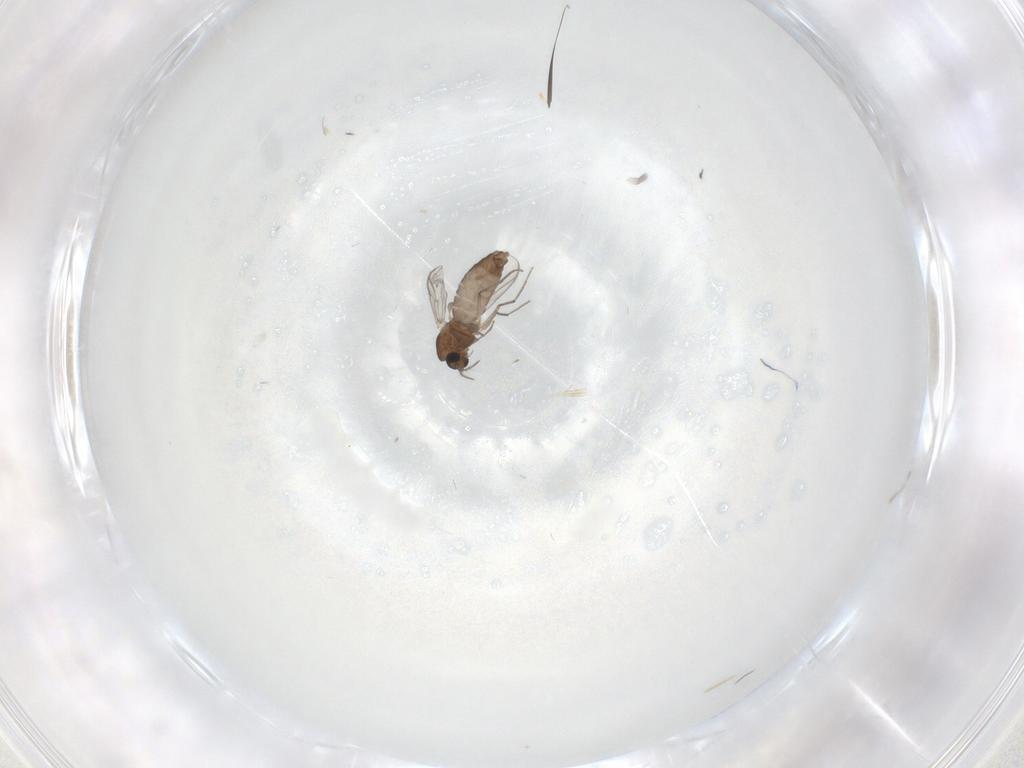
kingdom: Animalia
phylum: Arthropoda
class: Insecta
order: Diptera
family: Chironomidae
